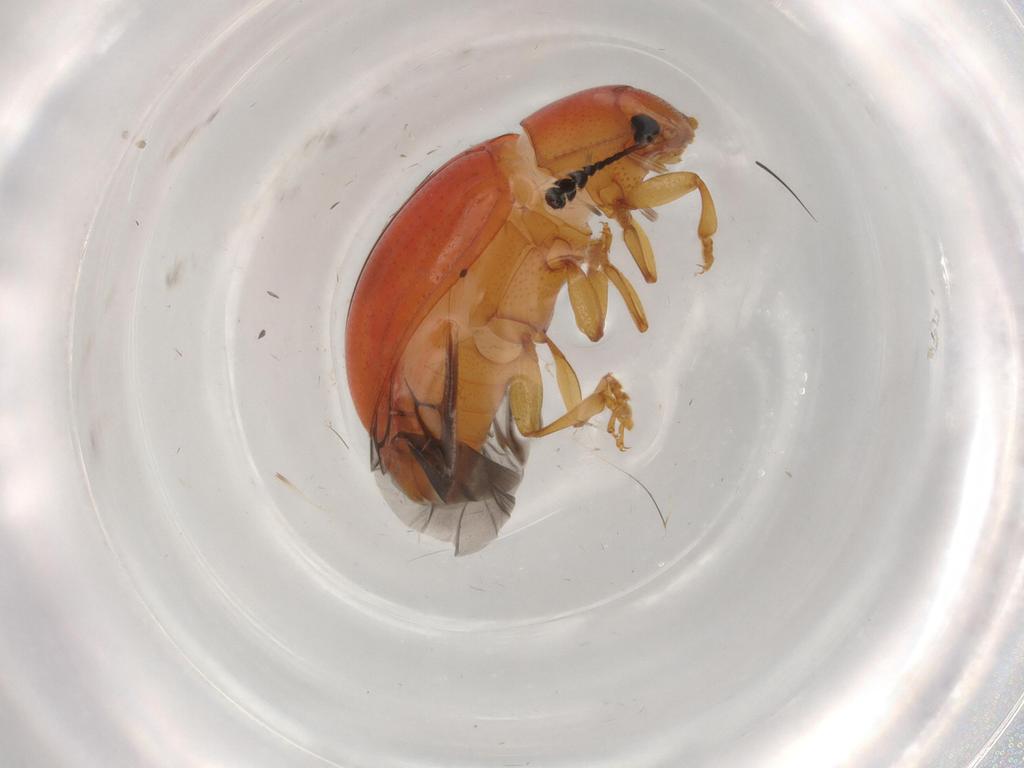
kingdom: Animalia
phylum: Arthropoda
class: Insecta
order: Coleoptera
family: Erotylidae
